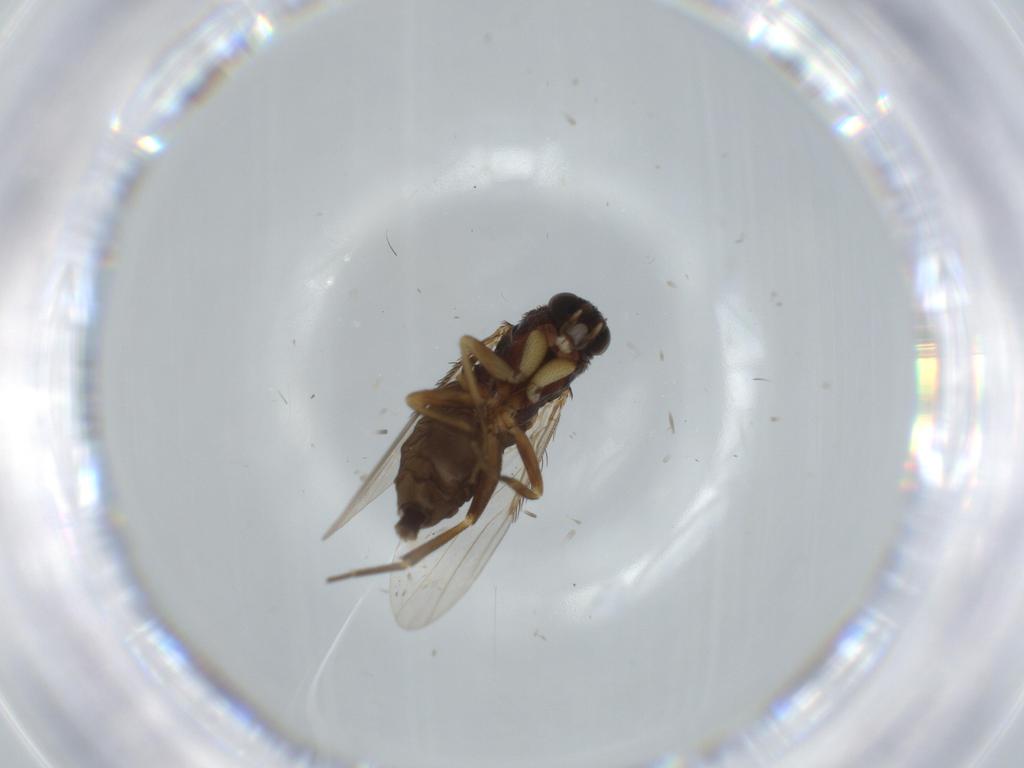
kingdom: Animalia
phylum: Arthropoda
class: Insecta
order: Diptera
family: Phoridae
